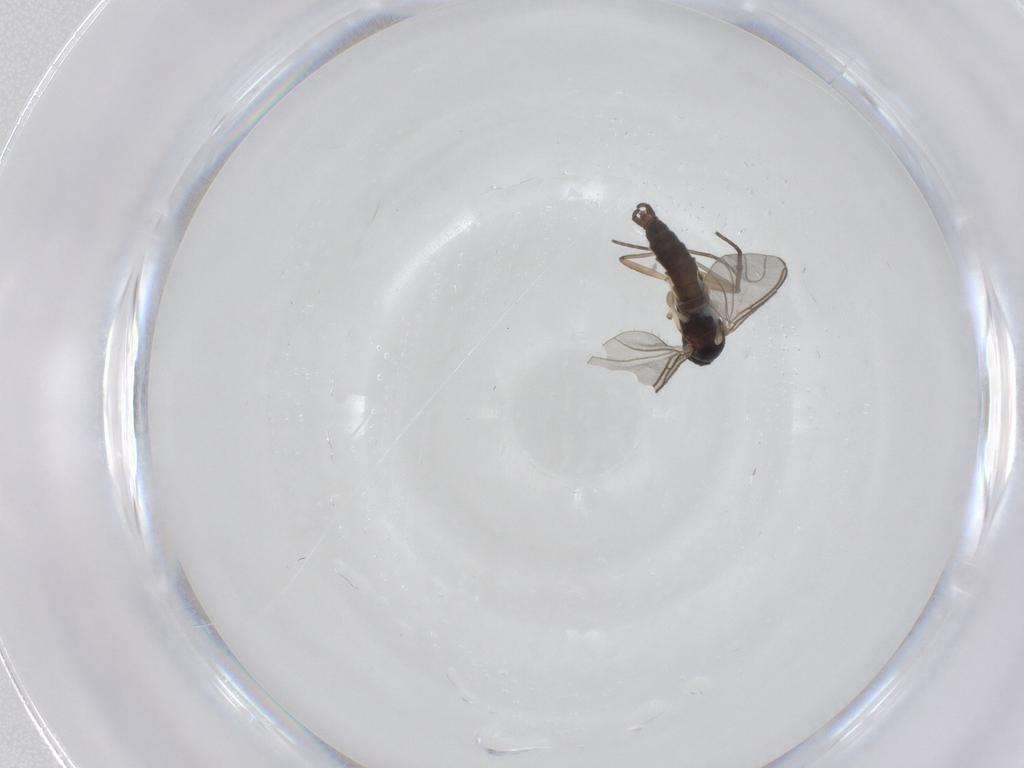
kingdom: Animalia
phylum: Arthropoda
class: Insecta
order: Diptera
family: Sciaridae
